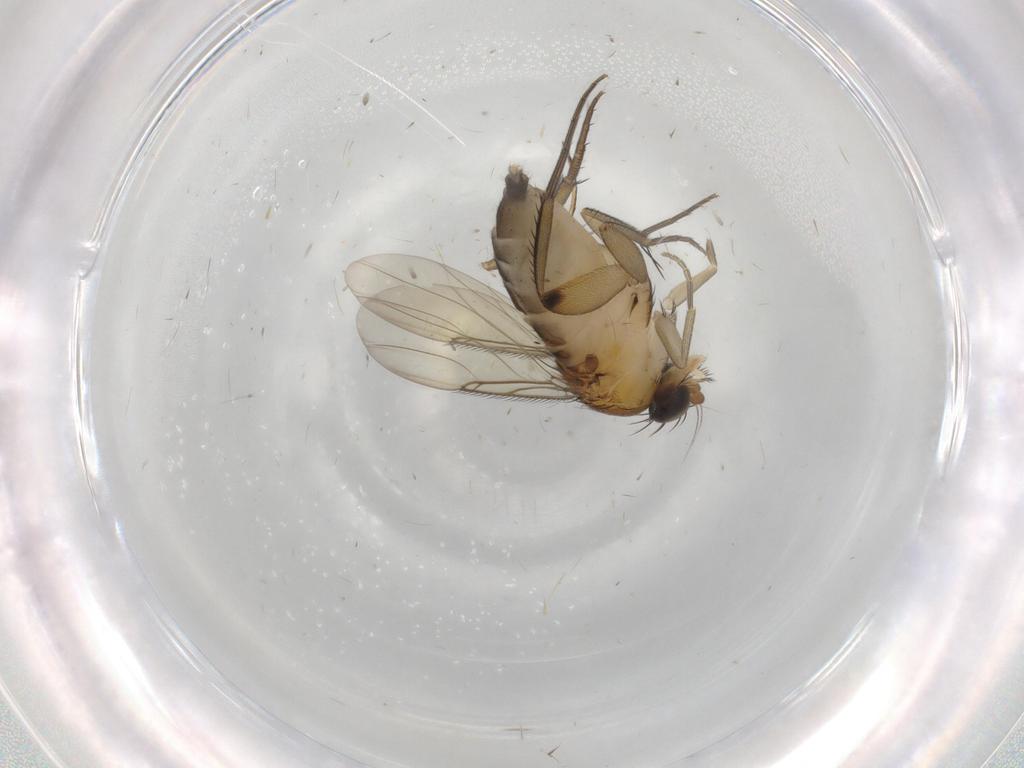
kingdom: Animalia
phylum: Arthropoda
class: Insecta
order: Diptera
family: Phoridae
